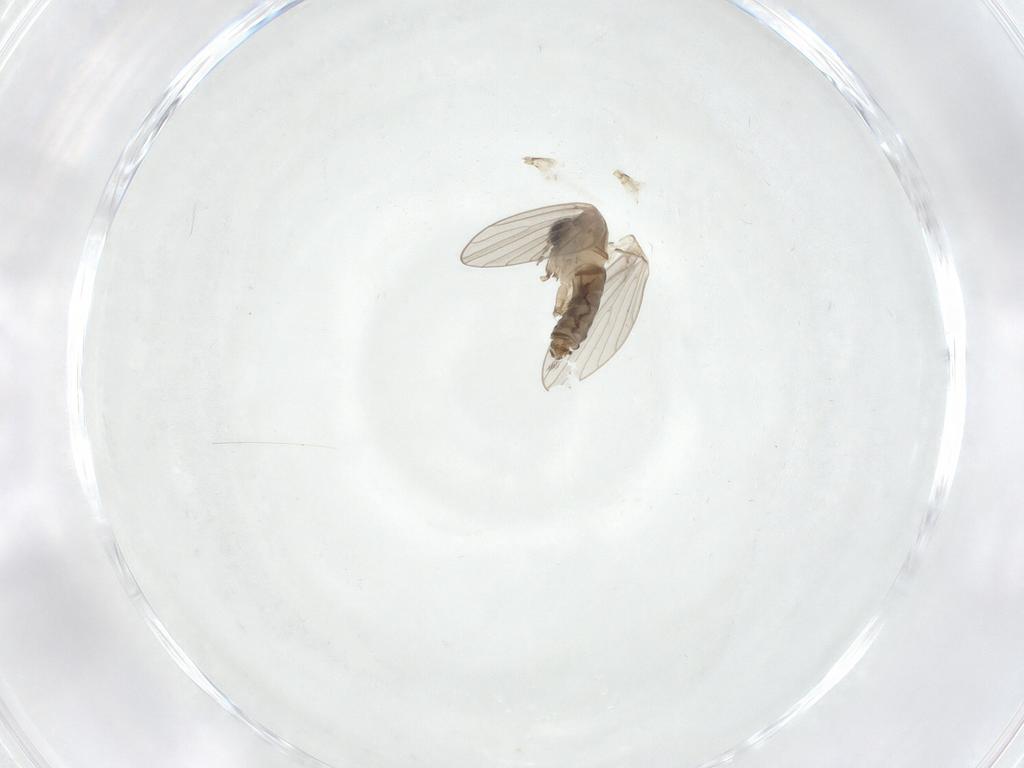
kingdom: Animalia
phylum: Arthropoda
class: Insecta
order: Diptera
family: Psychodidae
